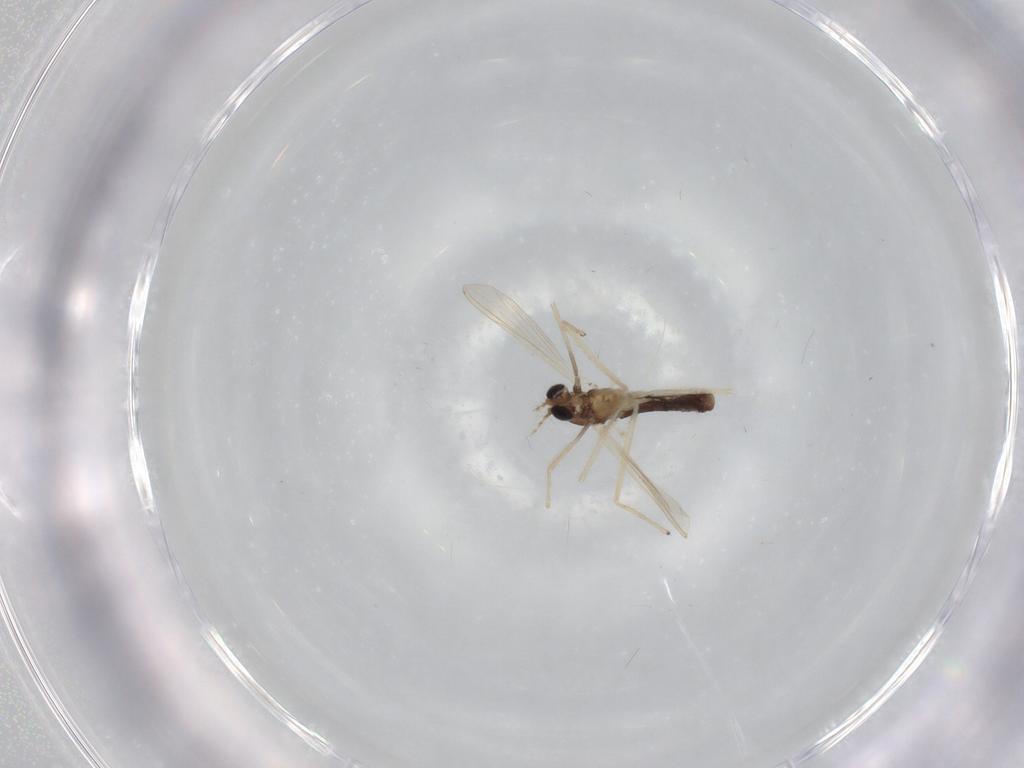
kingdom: Animalia
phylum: Arthropoda
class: Insecta
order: Diptera
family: Chironomidae
